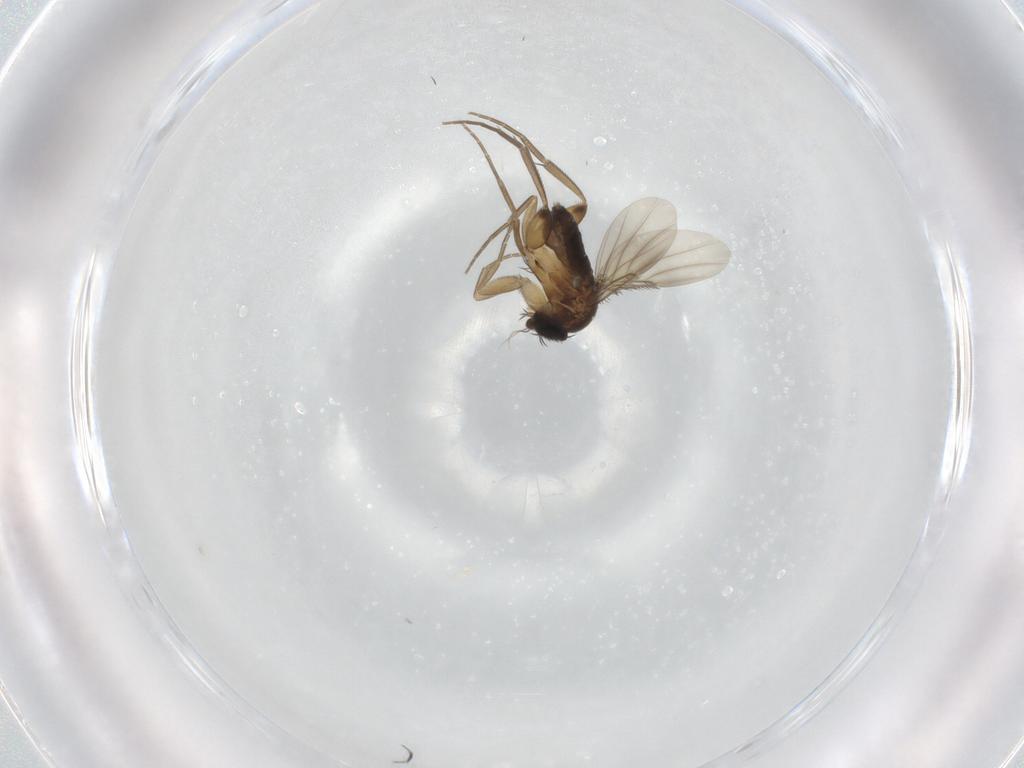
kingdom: Animalia
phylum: Arthropoda
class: Insecta
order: Diptera
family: Phoridae
